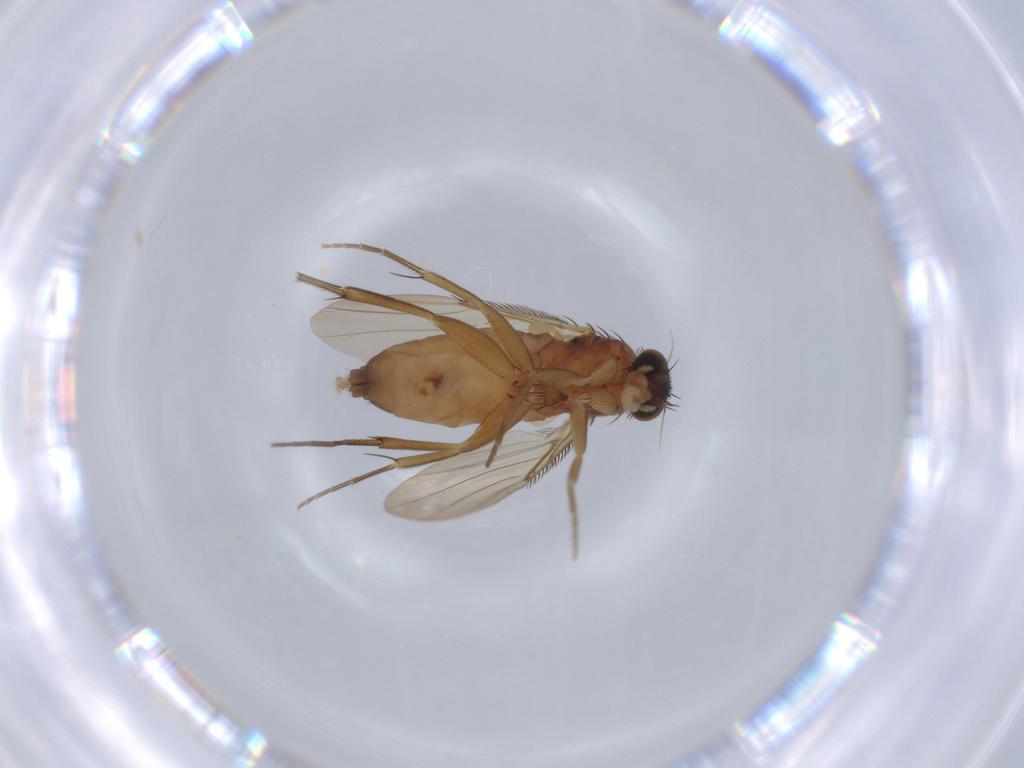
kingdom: Animalia
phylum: Arthropoda
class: Insecta
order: Diptera
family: Phoridae
